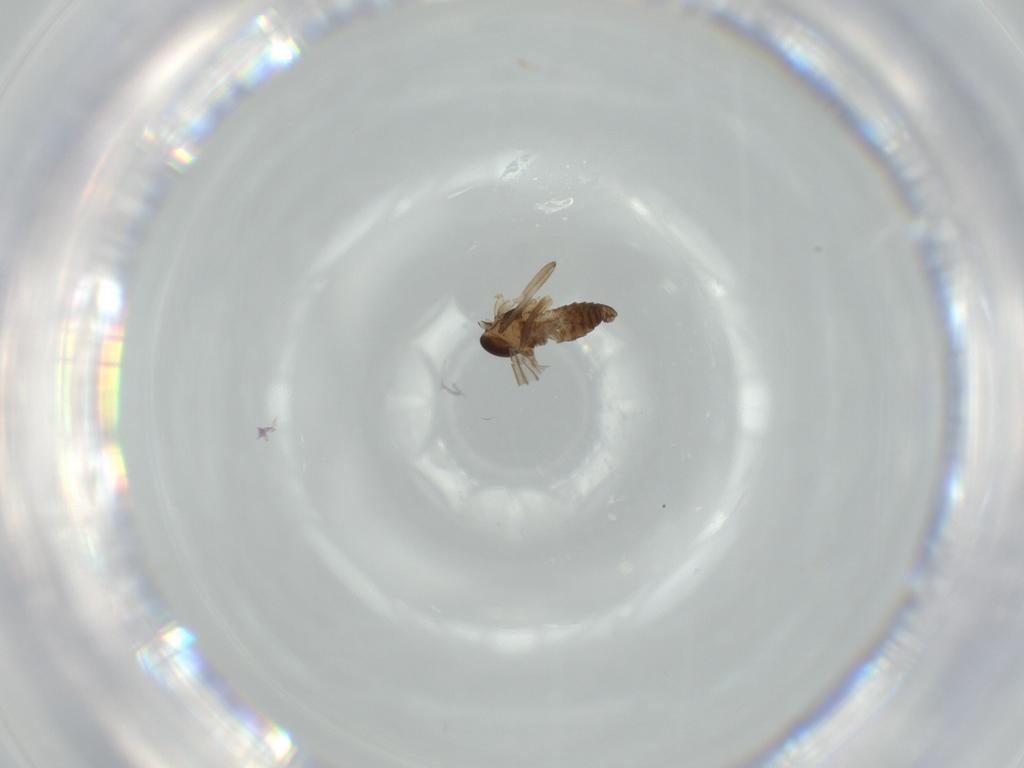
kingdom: Animalia
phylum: Arthropoda
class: Insecta
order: Diptera
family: Tachinidae
